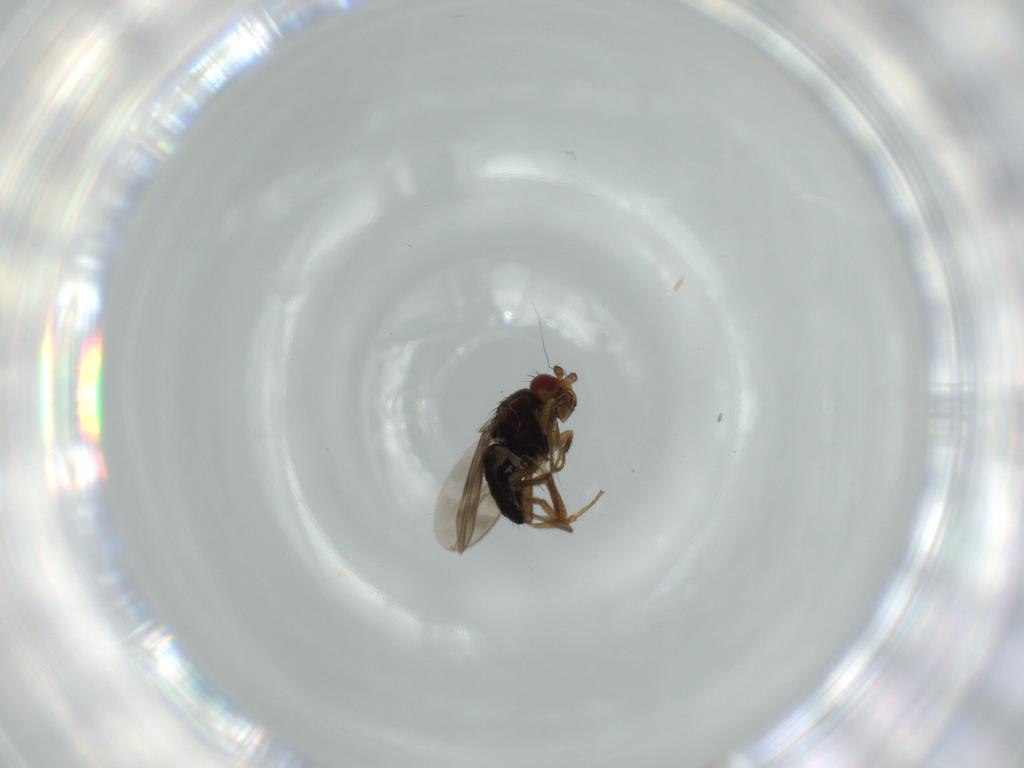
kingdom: Animalia
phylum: Arthropoda
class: Insecta
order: Diptera
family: Sphaeroceridae
